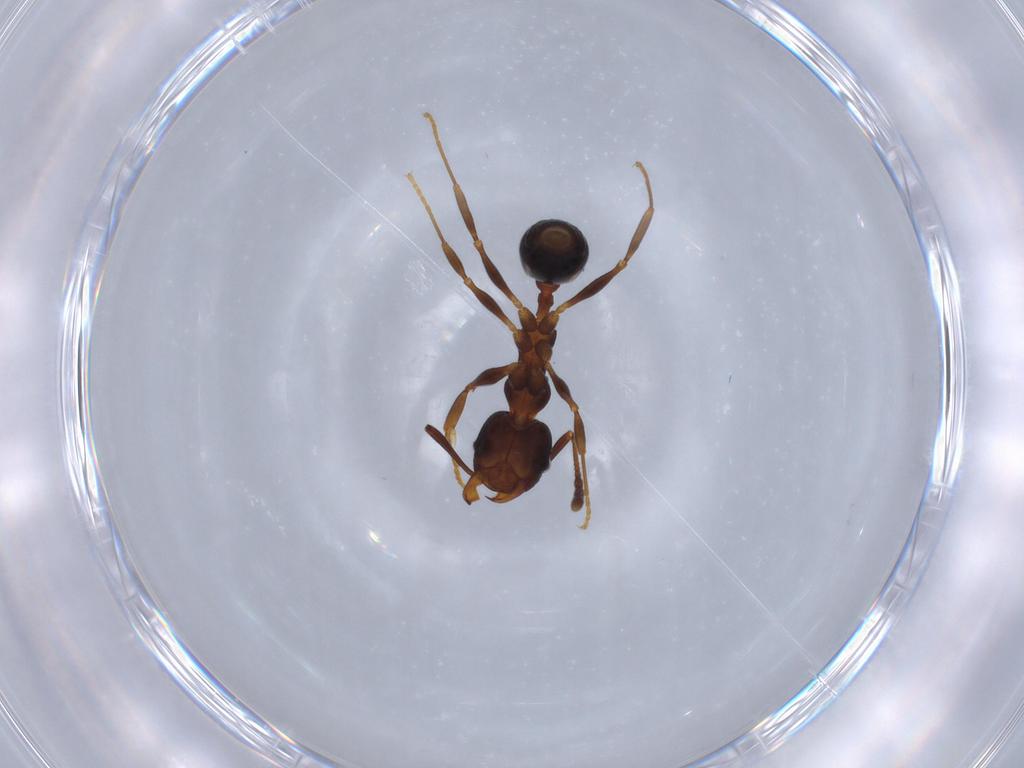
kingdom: Animalia
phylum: Arthropoda
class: Insecta
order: Hymenoptera
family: Formicidae
